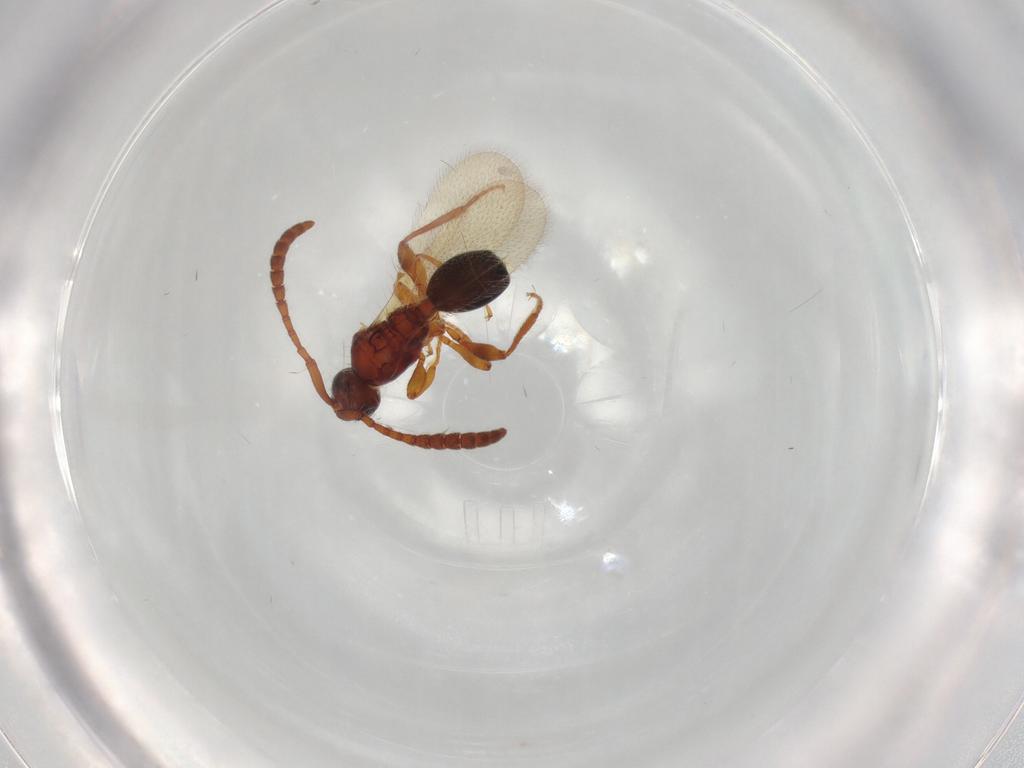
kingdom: Animalia
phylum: Arthropoda
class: Insecta
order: Hymenoptera
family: Diapriidae
